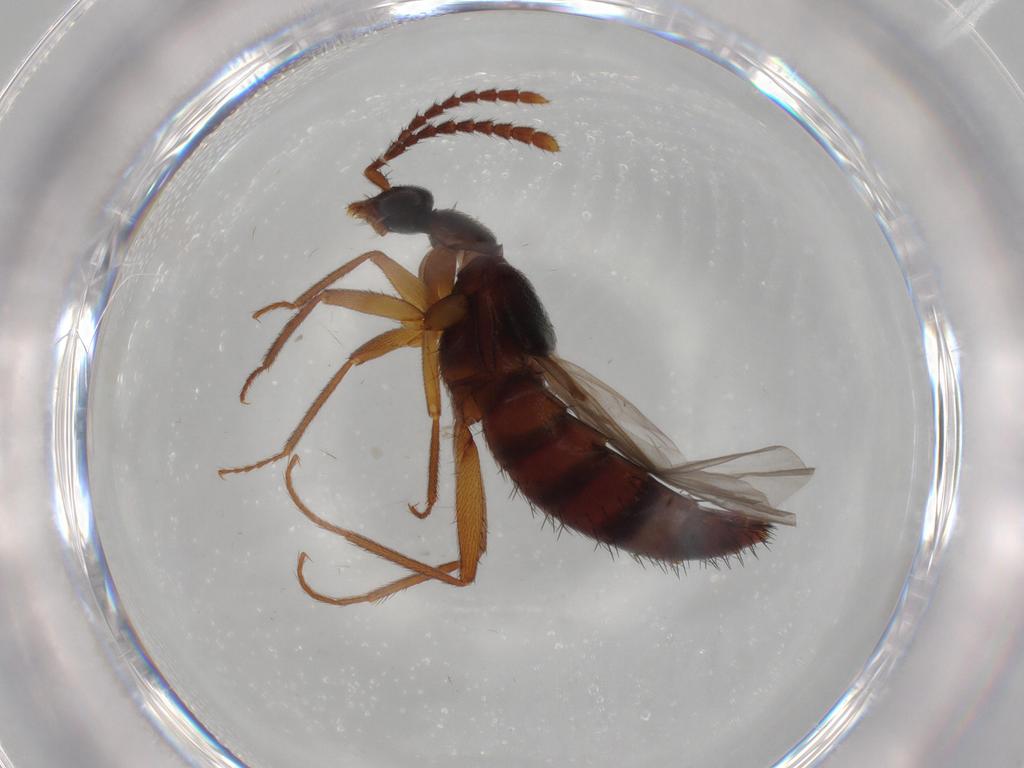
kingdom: Animalia
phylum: Arthropoda
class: Insecta
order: Coleoptera
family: Staphylinidae
